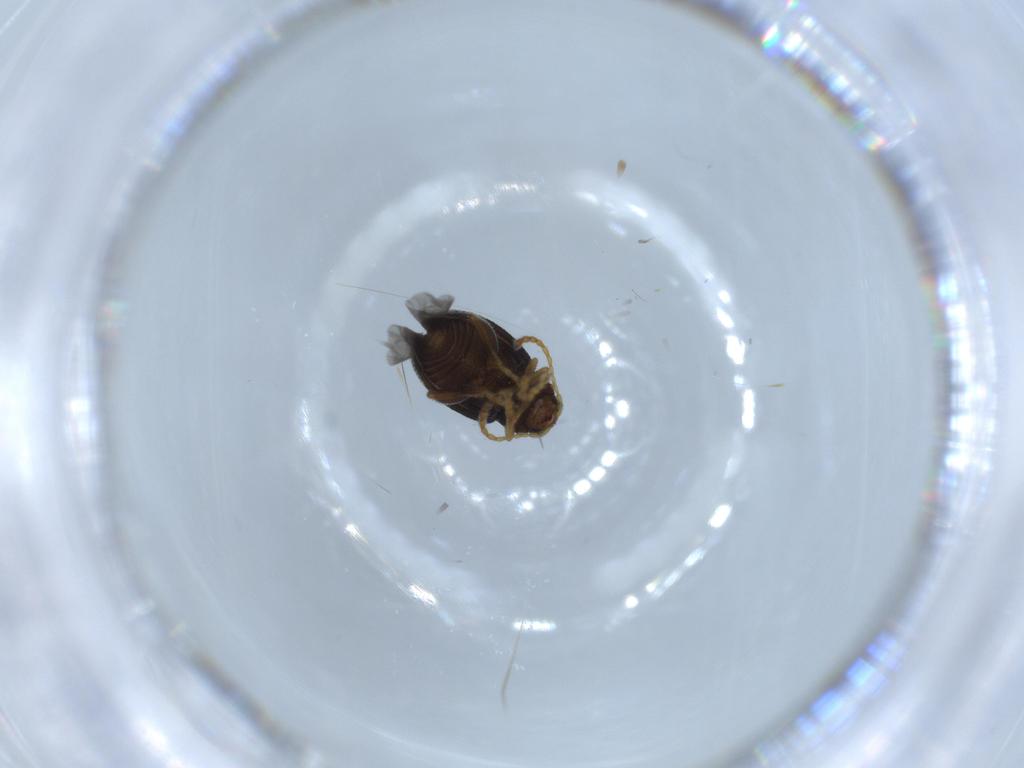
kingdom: Animalia
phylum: Arthropoda
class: Insecta
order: Coleoptera
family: Chrysomelidae
